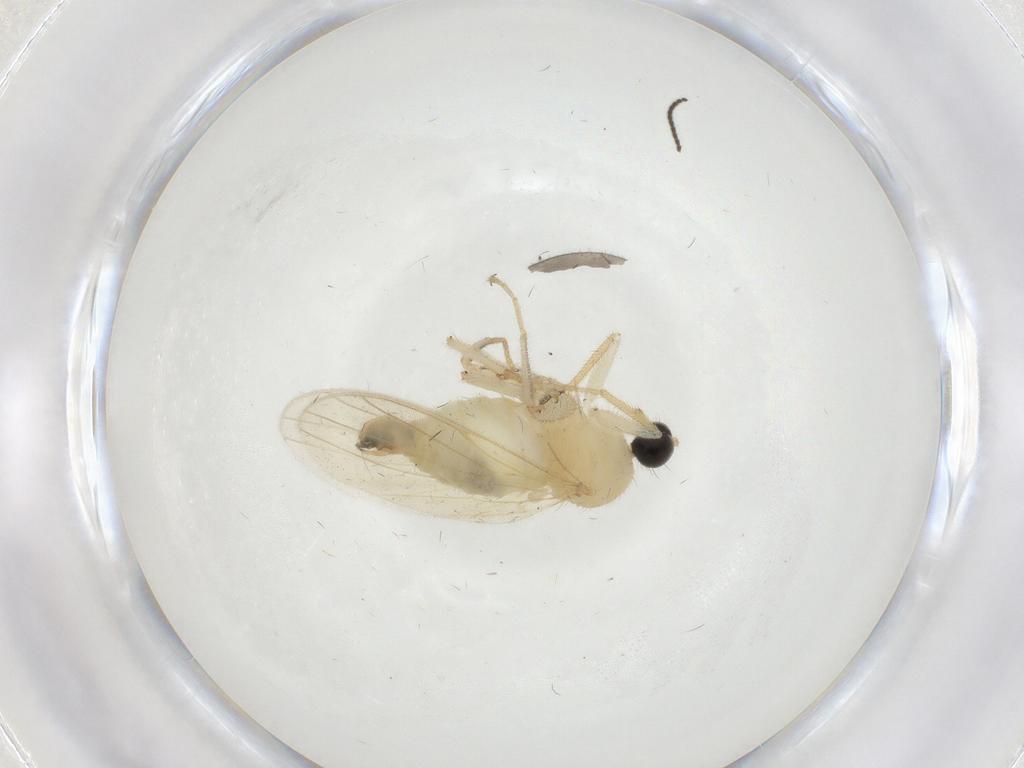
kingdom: Animalia
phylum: Arthropoda
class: Insecta
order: Diptera
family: Hybotidae
